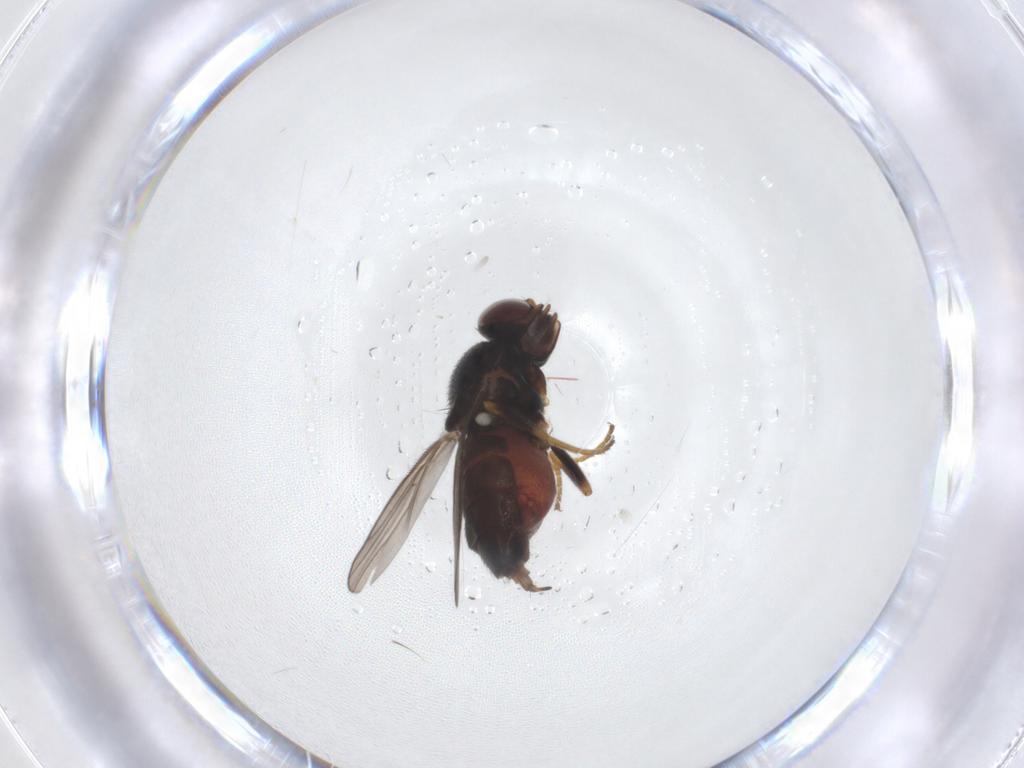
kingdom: Animalia
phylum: Arthropoda
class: Insecta
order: Diptera
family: Chloropidae
